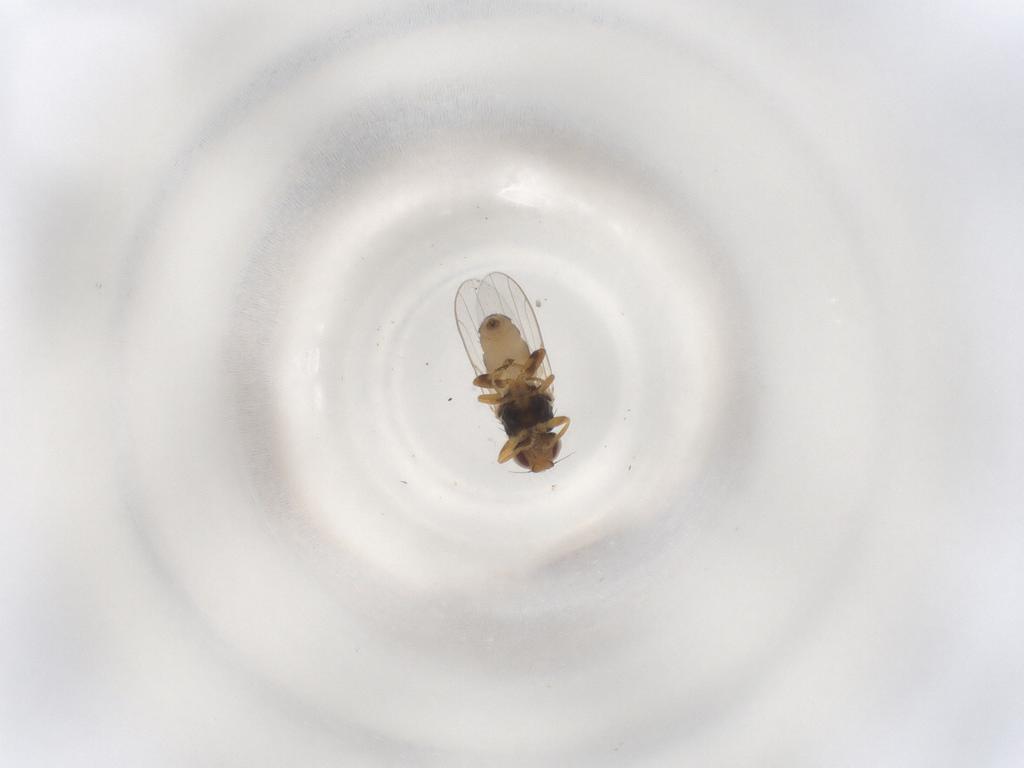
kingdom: Animalia
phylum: Arthropoda
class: Insecta
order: Diptera
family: Chloropidae
